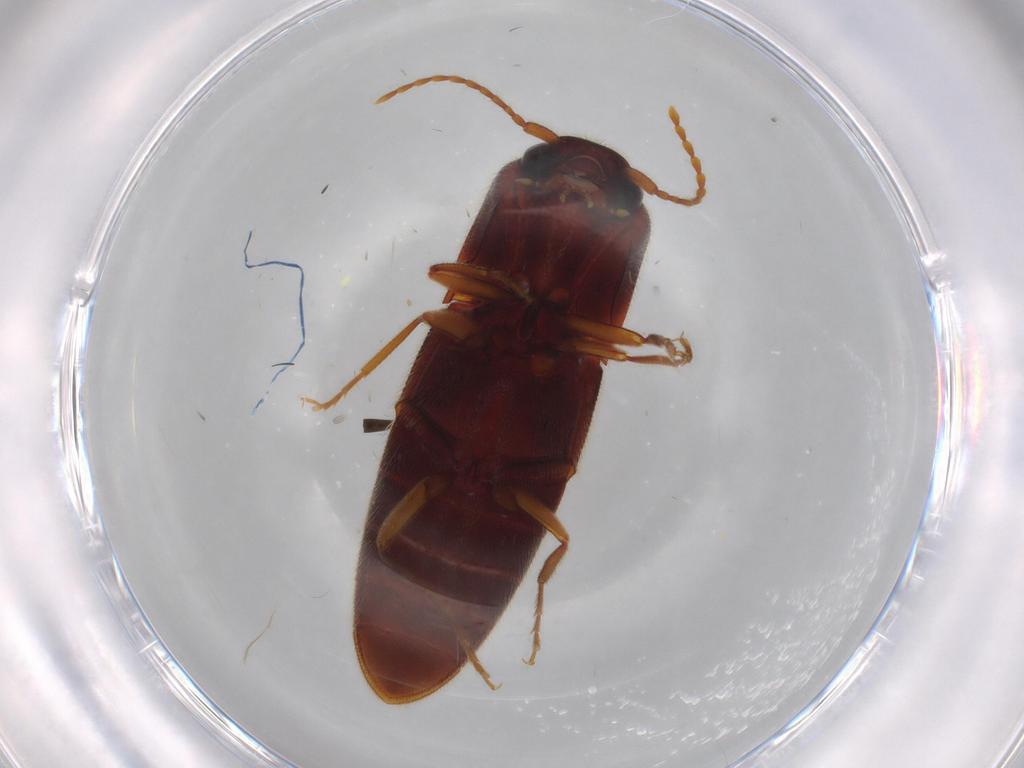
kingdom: Animalia
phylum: Arthropoda
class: Insecta
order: Coleoptera
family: Elateridae
